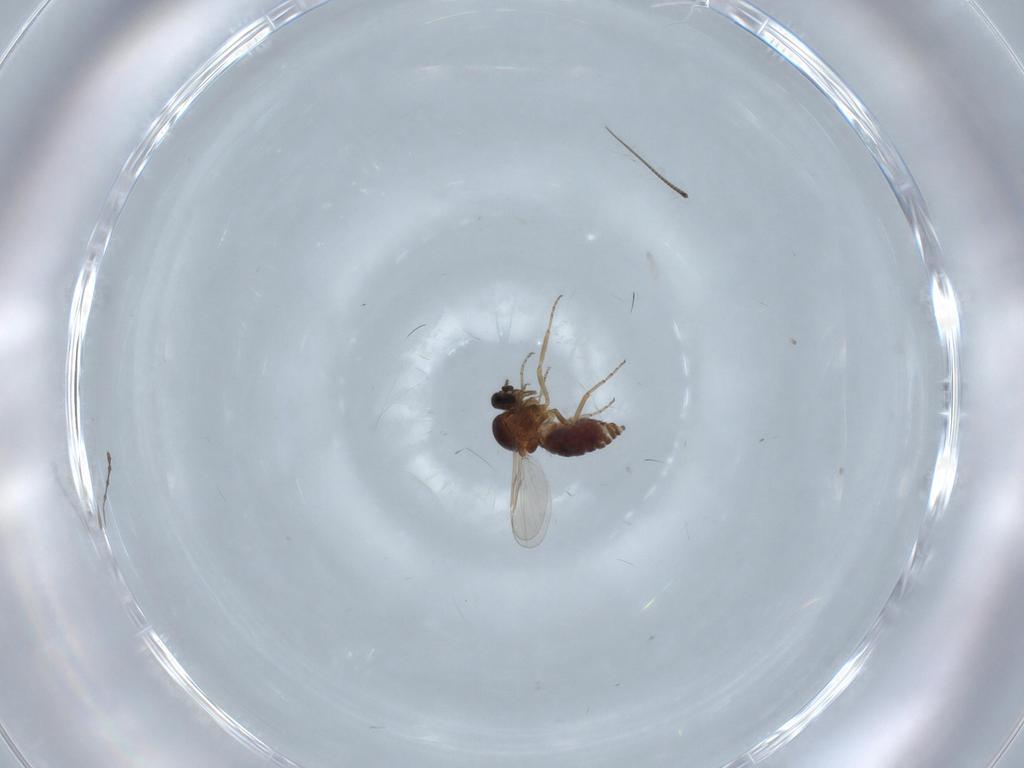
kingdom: Animalia
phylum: Arthropoda
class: Insecta
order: Diptera
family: Chironomidae
